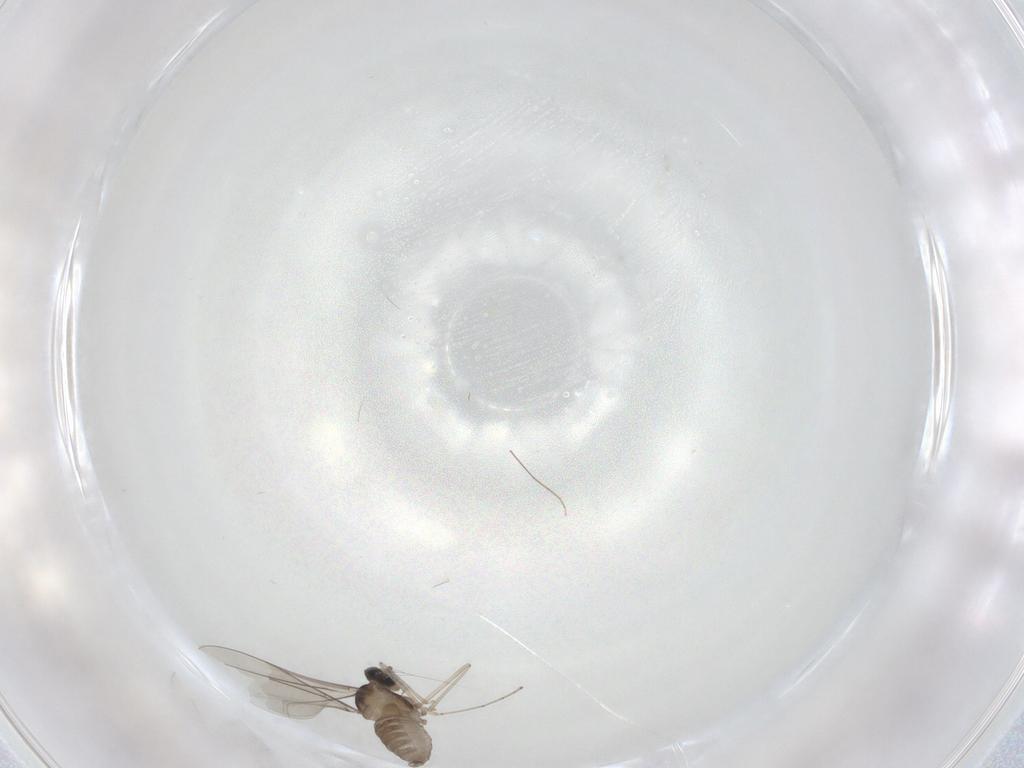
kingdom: Animalia
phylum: Arthropoda
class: Insecta
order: Diptera
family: Cecidomyiidae
